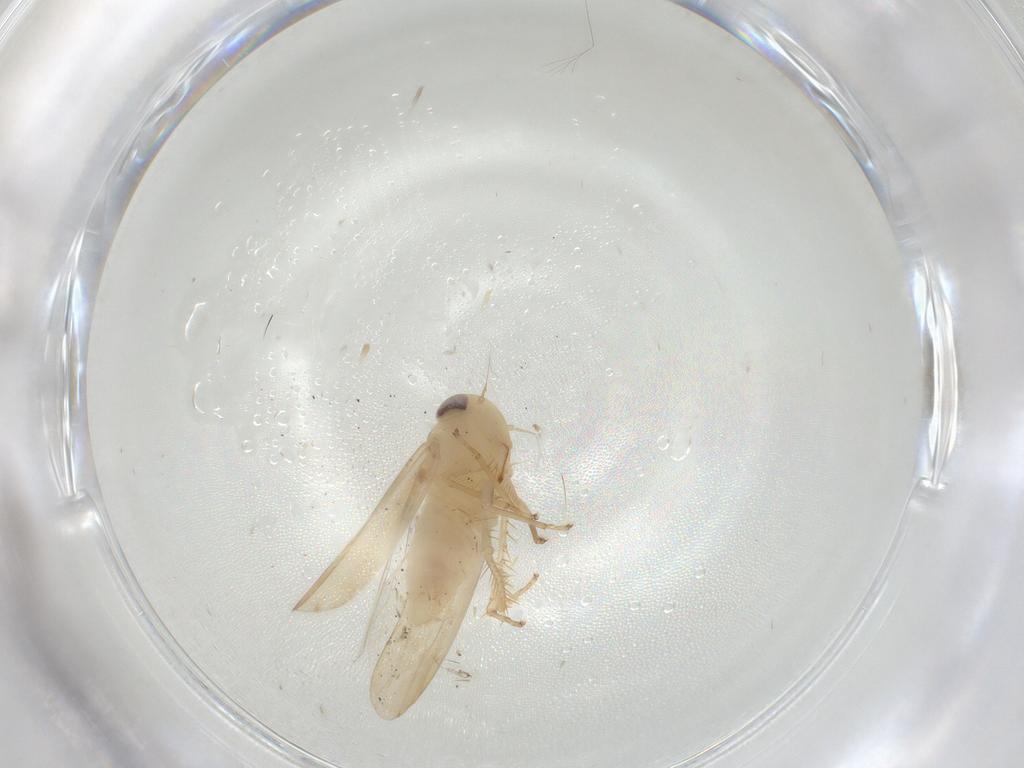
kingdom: Animalia
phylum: Arthropoda
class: Insecta
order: Hemiptera
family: Cicadellidae
